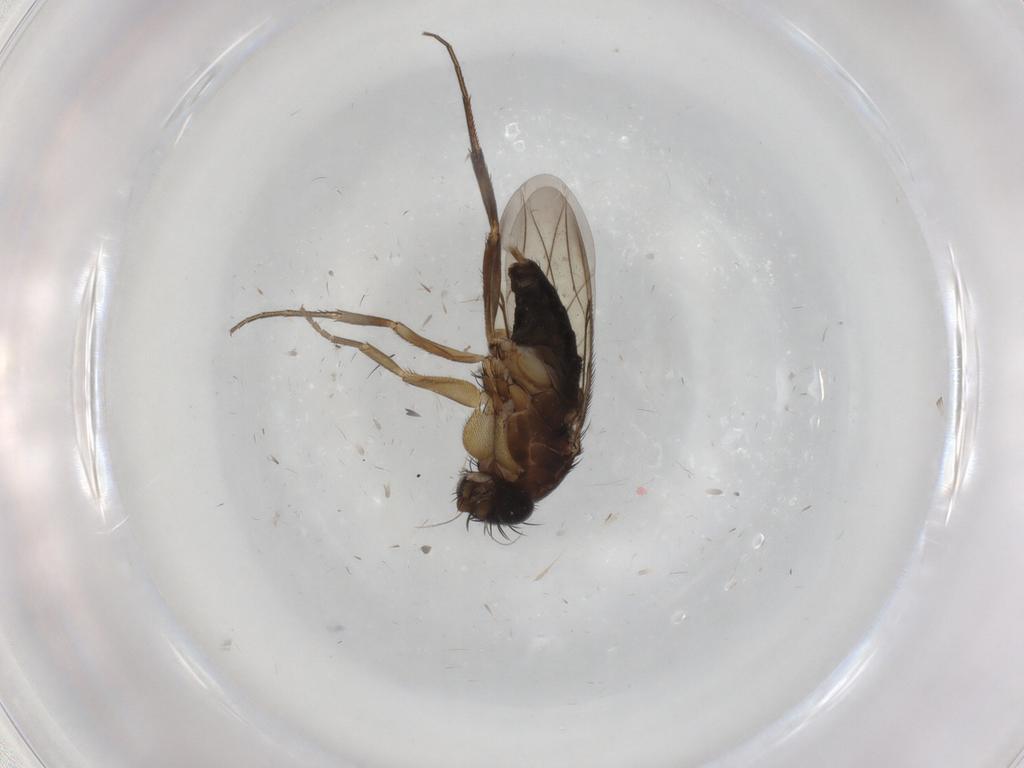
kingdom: Animalia
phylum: Arthropoda
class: Insecta
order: Diptera
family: Phoridae
